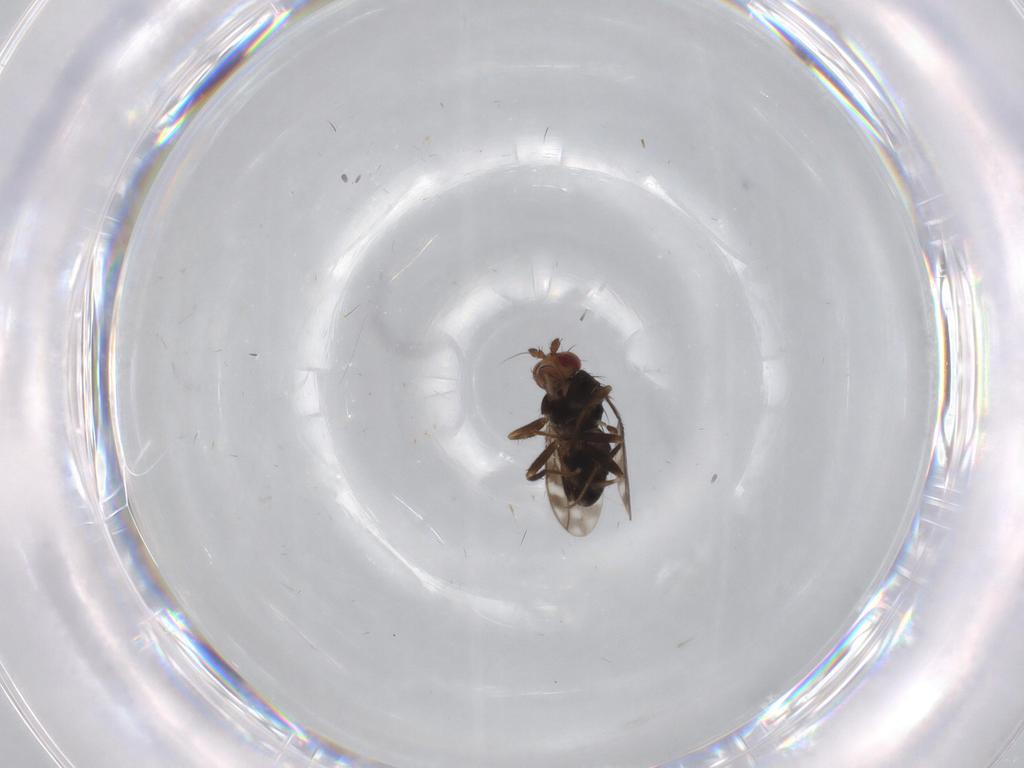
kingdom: Animalia
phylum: Arthropoda
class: Insecta
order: Diptera
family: Sphaeroceridae
